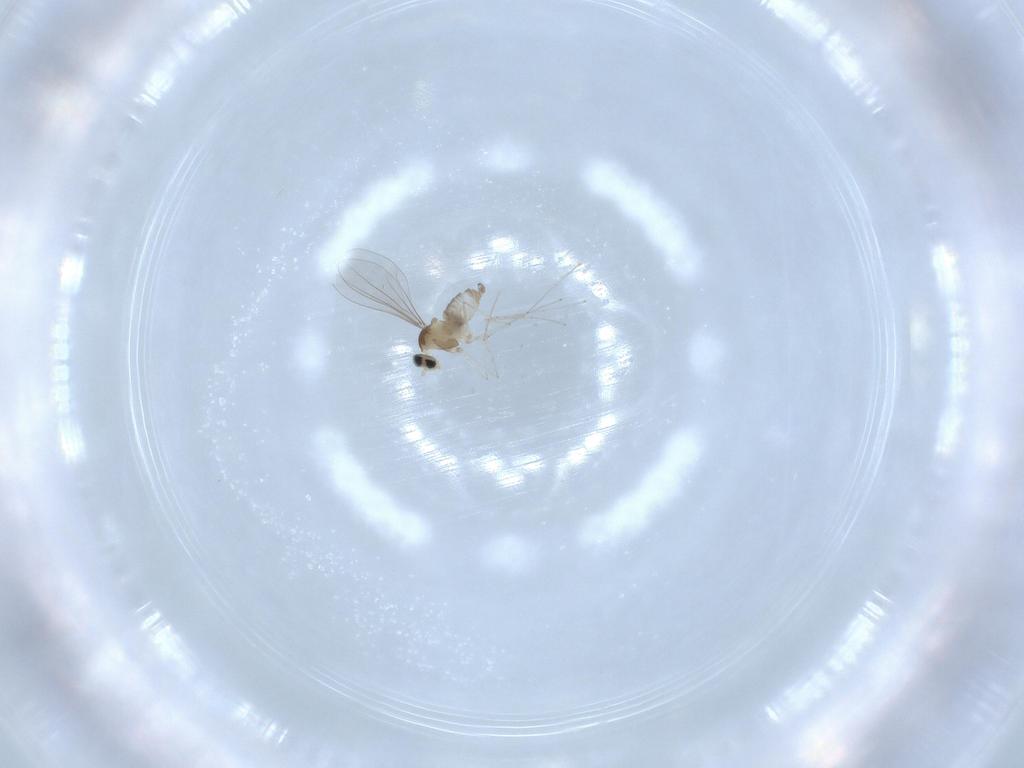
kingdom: Animalia
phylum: Arthropoda
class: Insecta
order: Diptera
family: Cecidomyiidae
